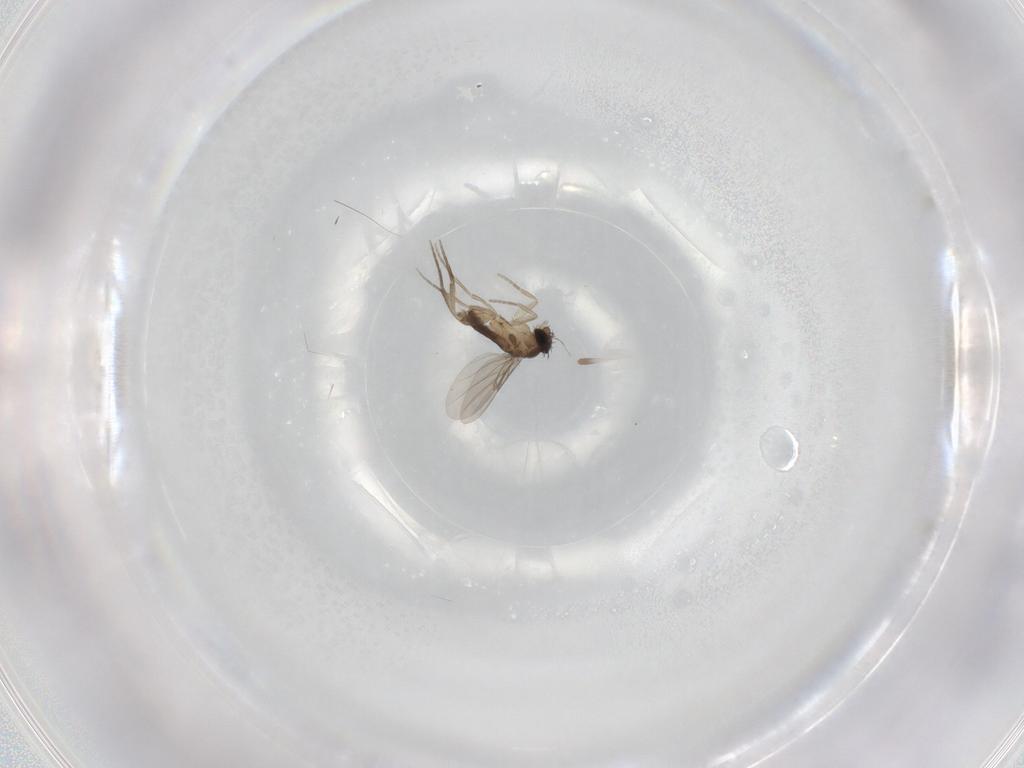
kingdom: Animalia
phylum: Arthropoda
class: Insecta
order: Diptera
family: Phoridae
